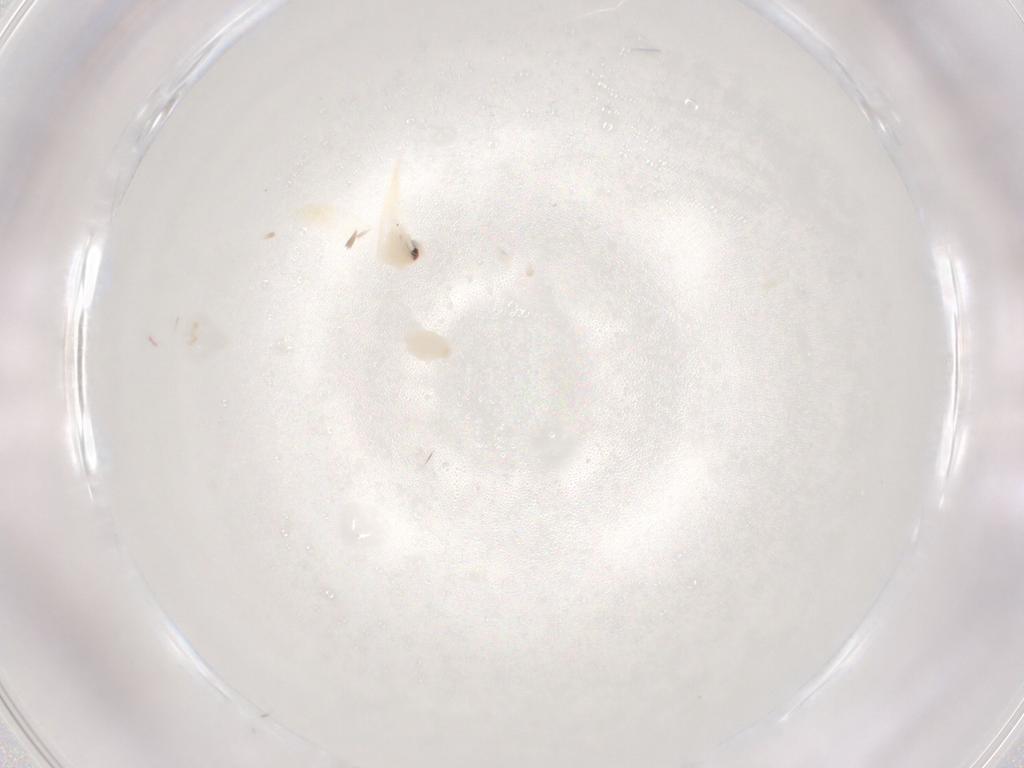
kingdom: Animalia
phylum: Arthropoda
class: Insecta
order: Hemiptera
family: Aleyrodidae
